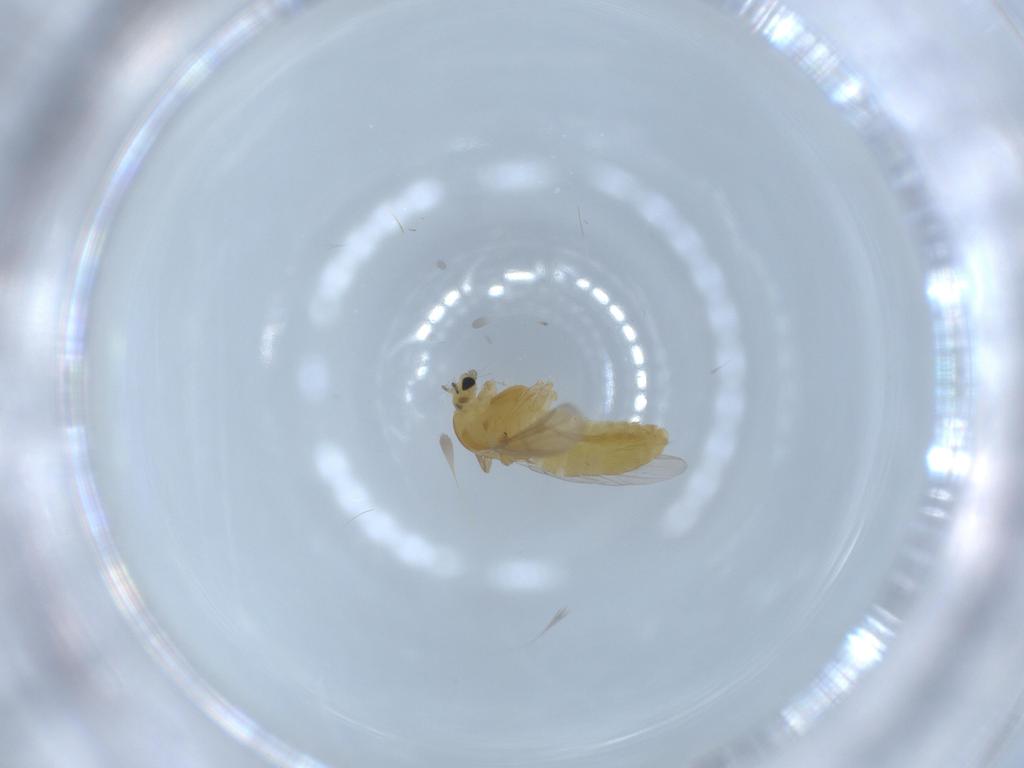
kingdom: Animalia
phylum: Arthropoda
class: Insecta
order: Diptera
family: Chironomidae
